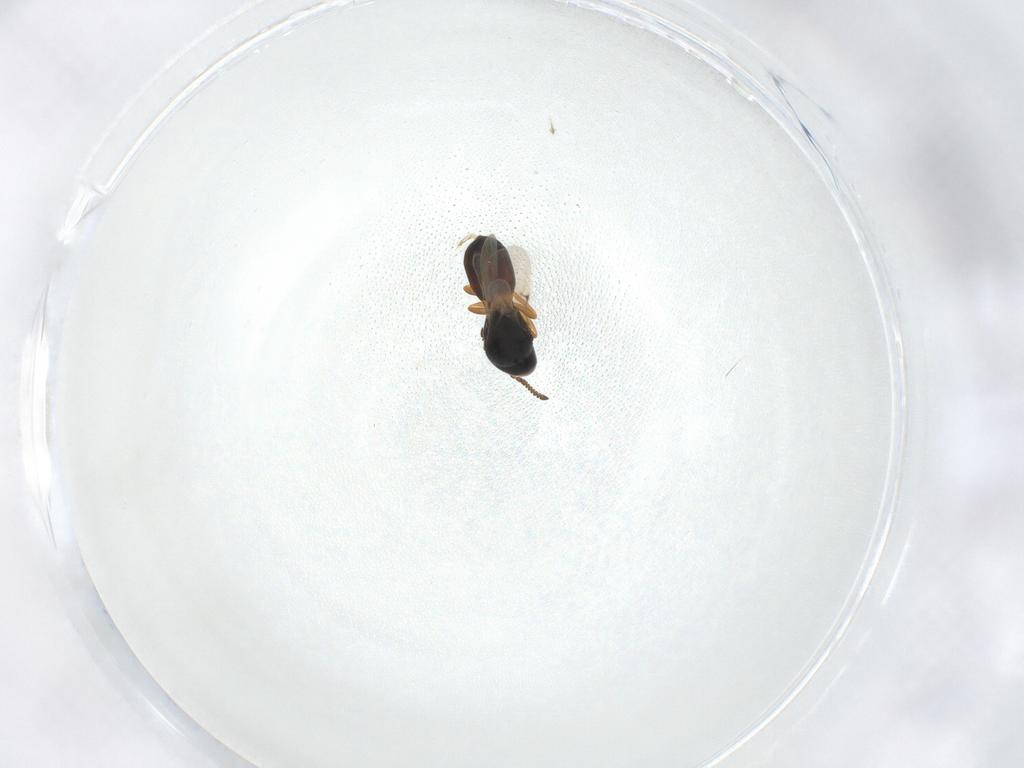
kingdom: Animalia
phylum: Arthropoda
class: Insecta
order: Hymenoptera
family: Scelionidae
